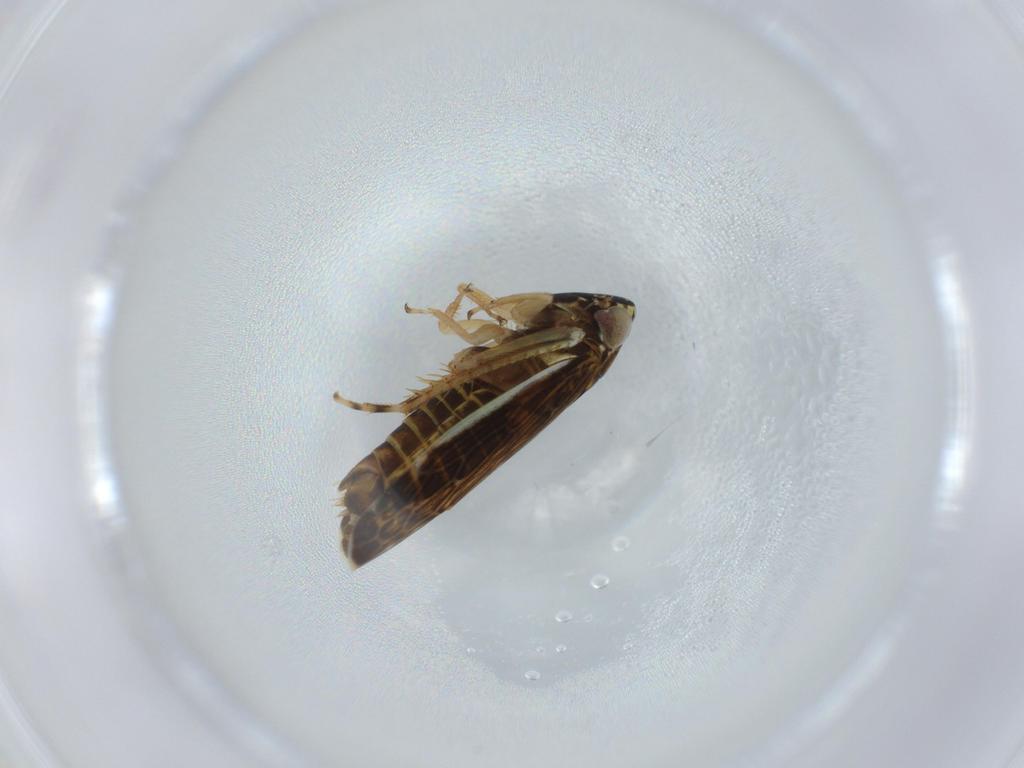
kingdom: Animalia
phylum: Arthropoda
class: Insecta
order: Hemiptera
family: Cicadellidae
